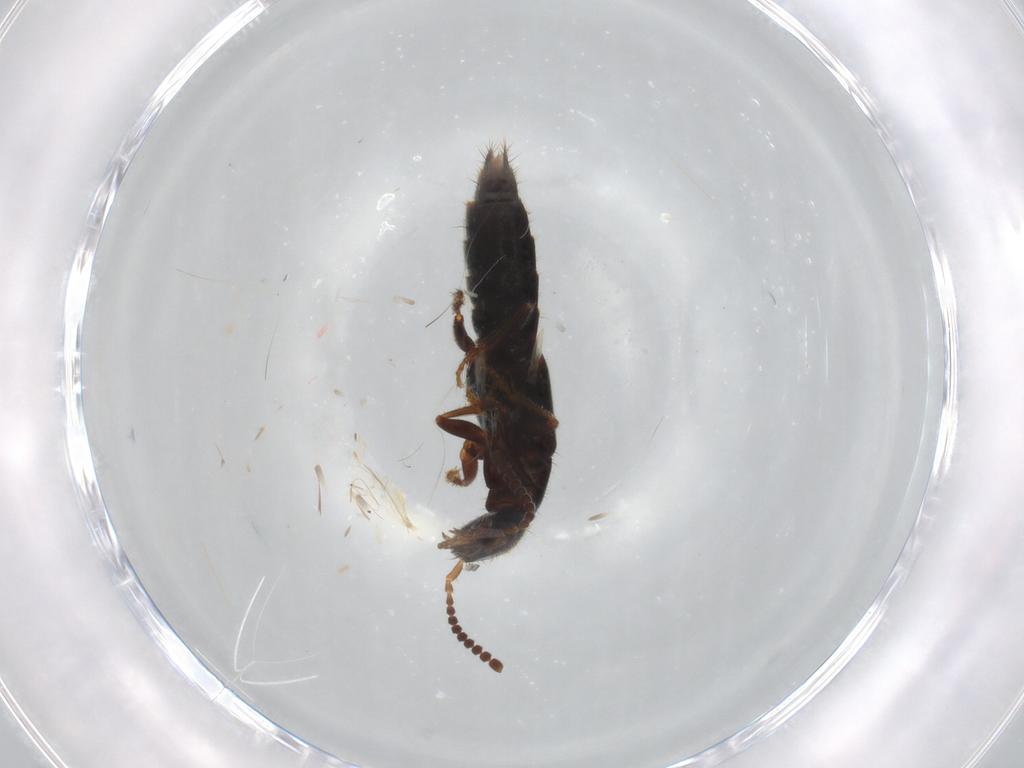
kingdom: Animalia
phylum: Arthropoda
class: Insecta
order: Coleoptera
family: Staphylinidae
